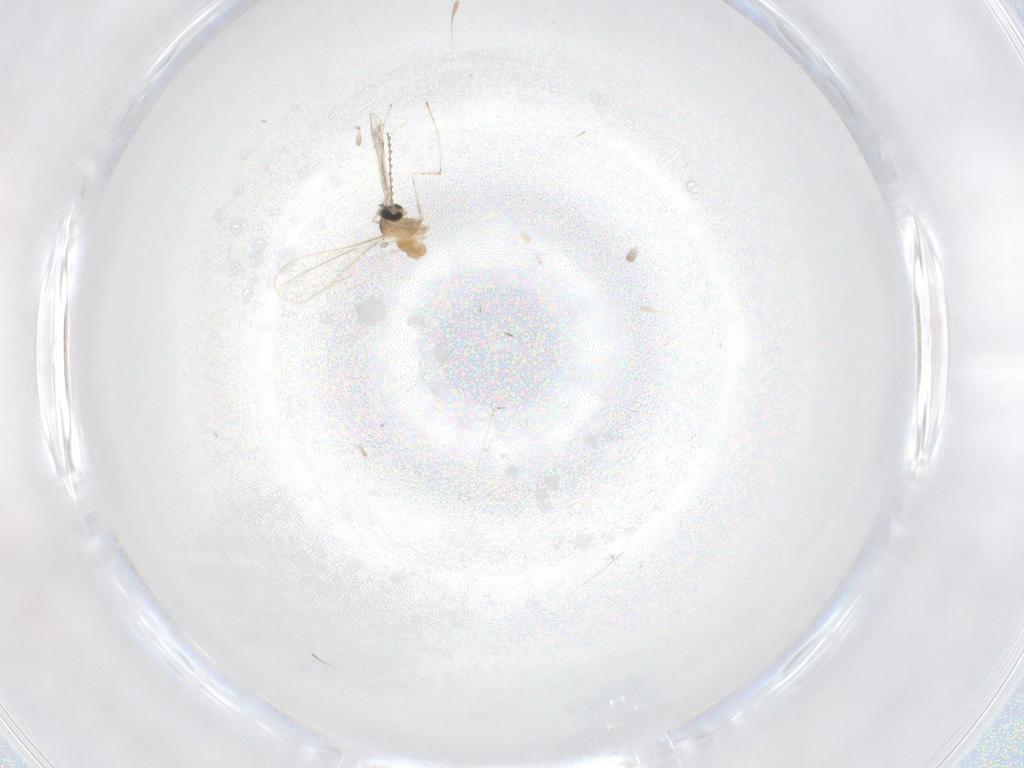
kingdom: Animalia
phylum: Arthropoda
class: Insecta
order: Diptera
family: Cecidomyiidae
